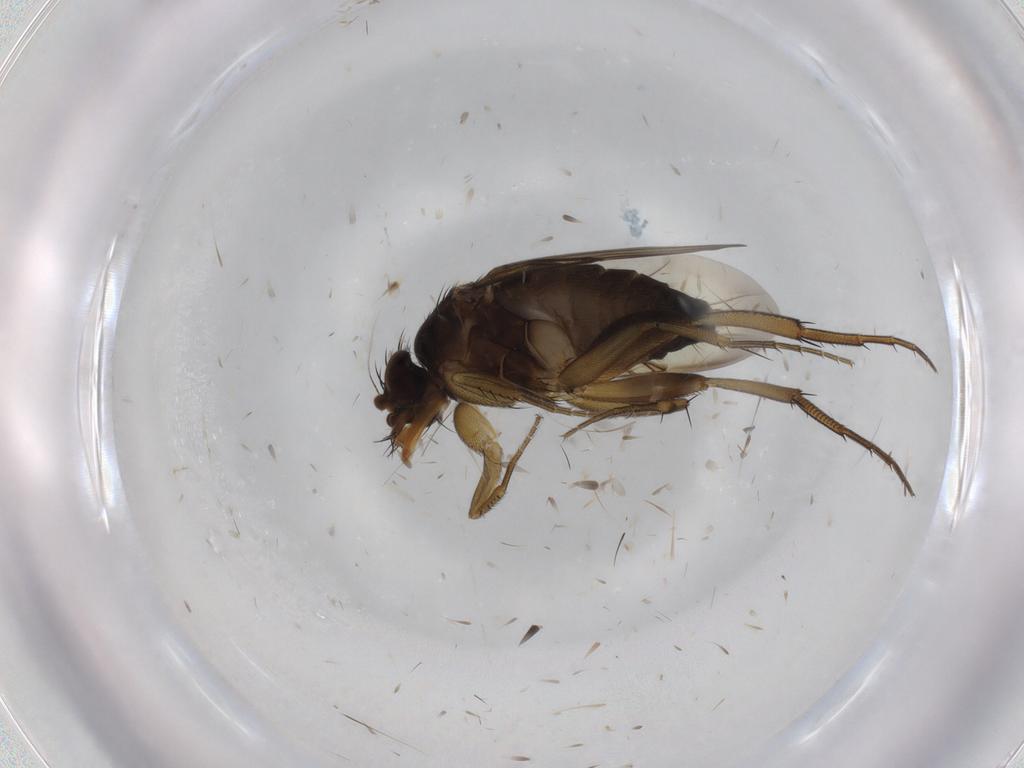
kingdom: Animalia
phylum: Arthropoda
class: Insecta
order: Diptera
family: Phoridae
